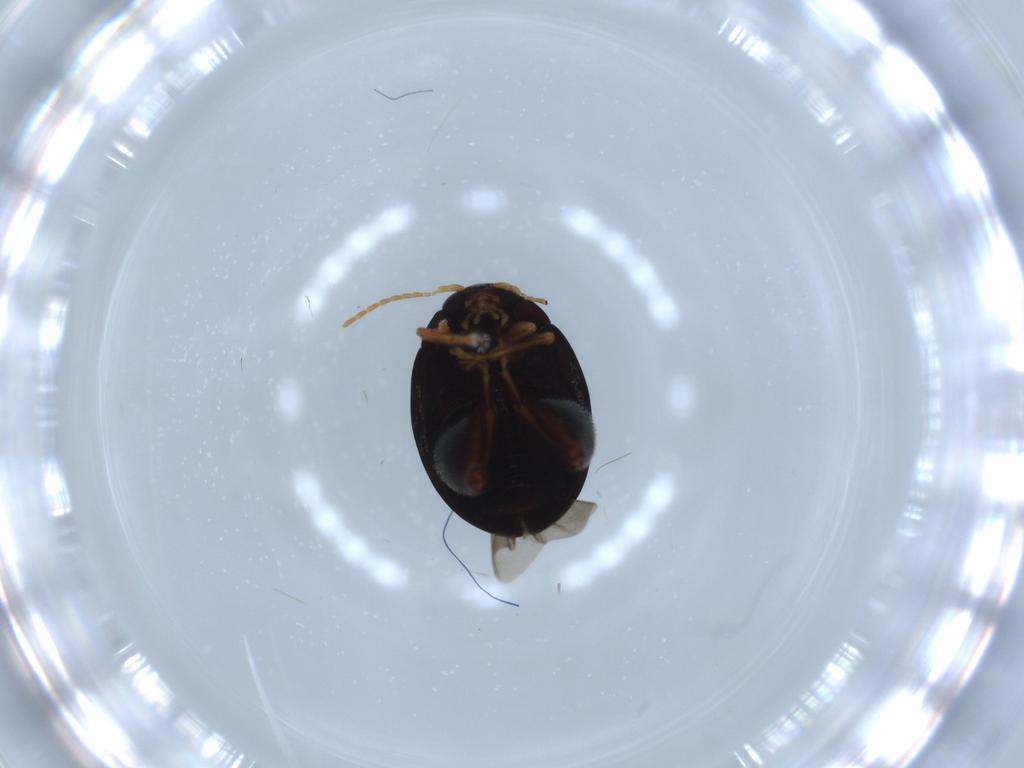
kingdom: Animalia
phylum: Arthropoda
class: Insecta
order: Coleoptera
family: Chrysomelidae
